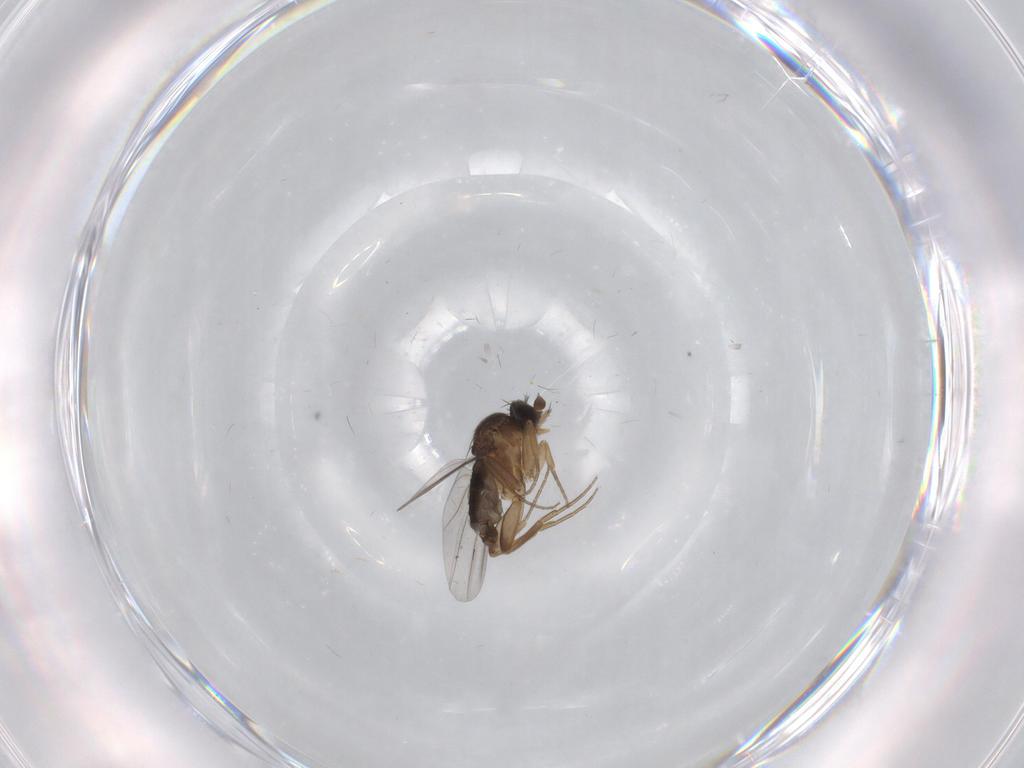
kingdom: Animalia
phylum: Arthropoda
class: Insecta
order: Diptera
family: Phoridae
